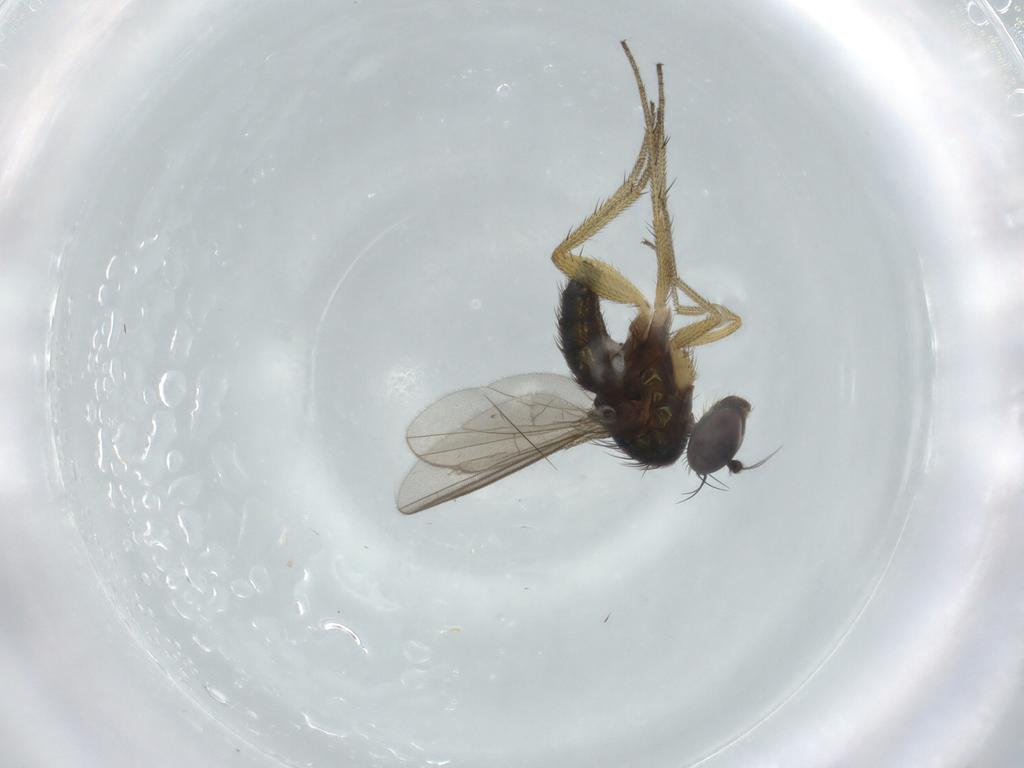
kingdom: Animalia
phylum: Arthropoda
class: Insecta
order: Diptera
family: Dolichopodidae
